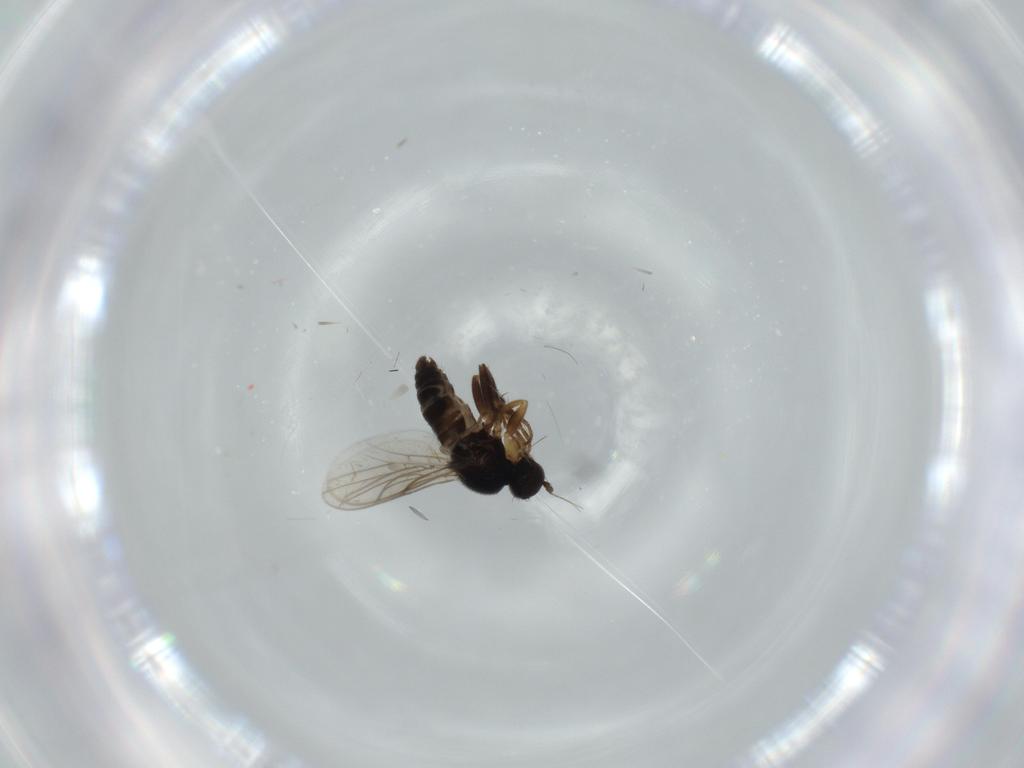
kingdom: Animalia
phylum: Arthropoda
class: Insecta
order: Diptera
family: Hybotidae
